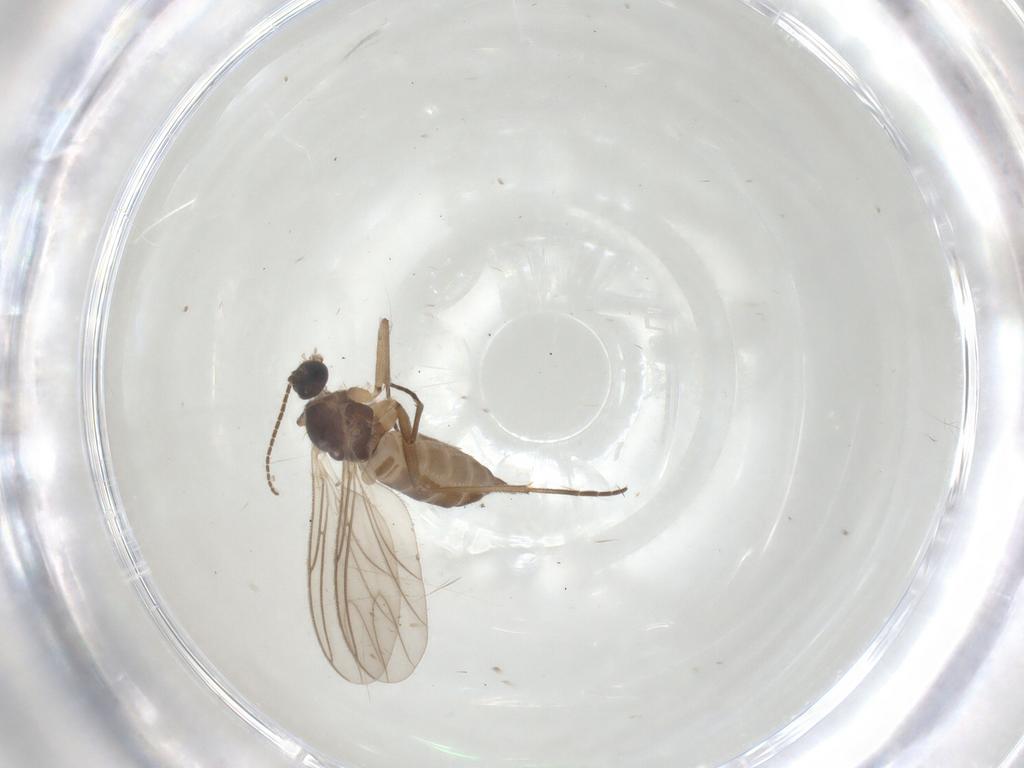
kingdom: Animalia
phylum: Arthropoda
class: Insecta
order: Diptera
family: Sciaridae
